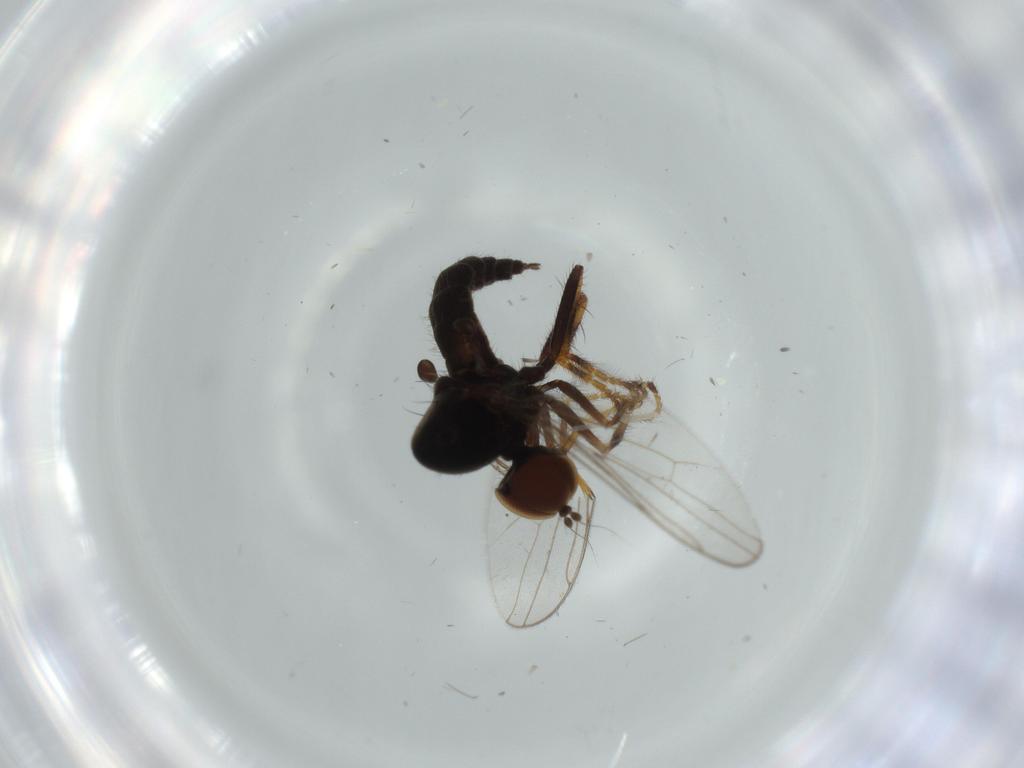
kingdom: Animalia
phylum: Arthropoda
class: Insecta
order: Diptera
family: Hybotidae
